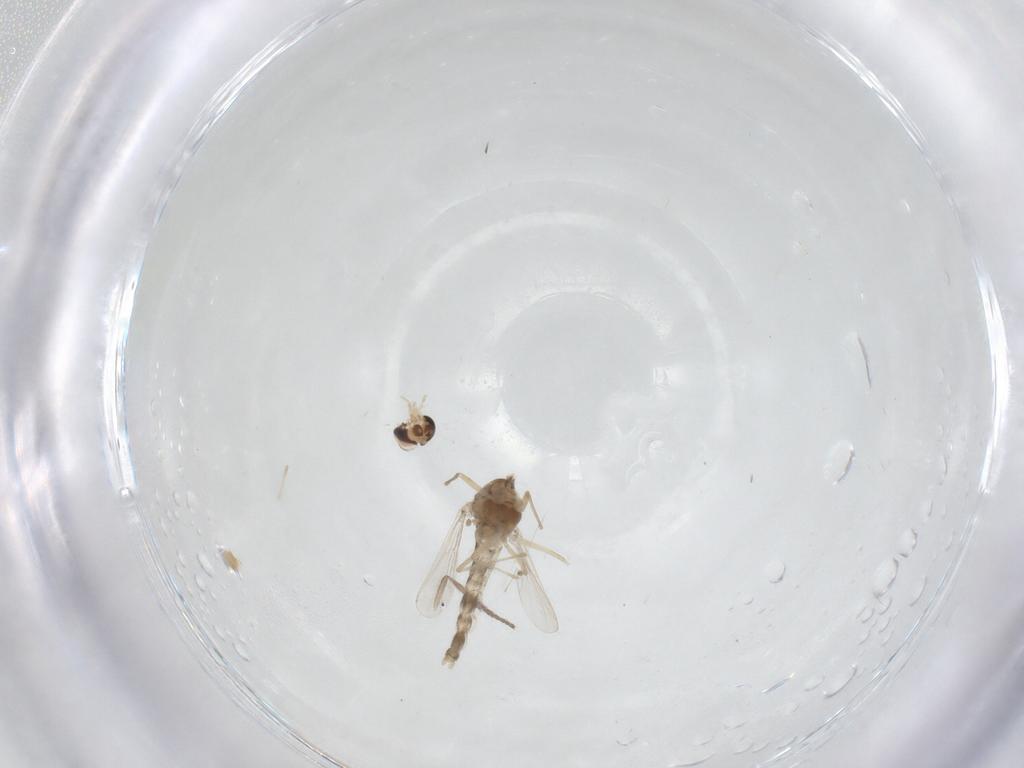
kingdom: Animalia
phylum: Arthropoda
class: Insecta
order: Diptera
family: Psychodidae
